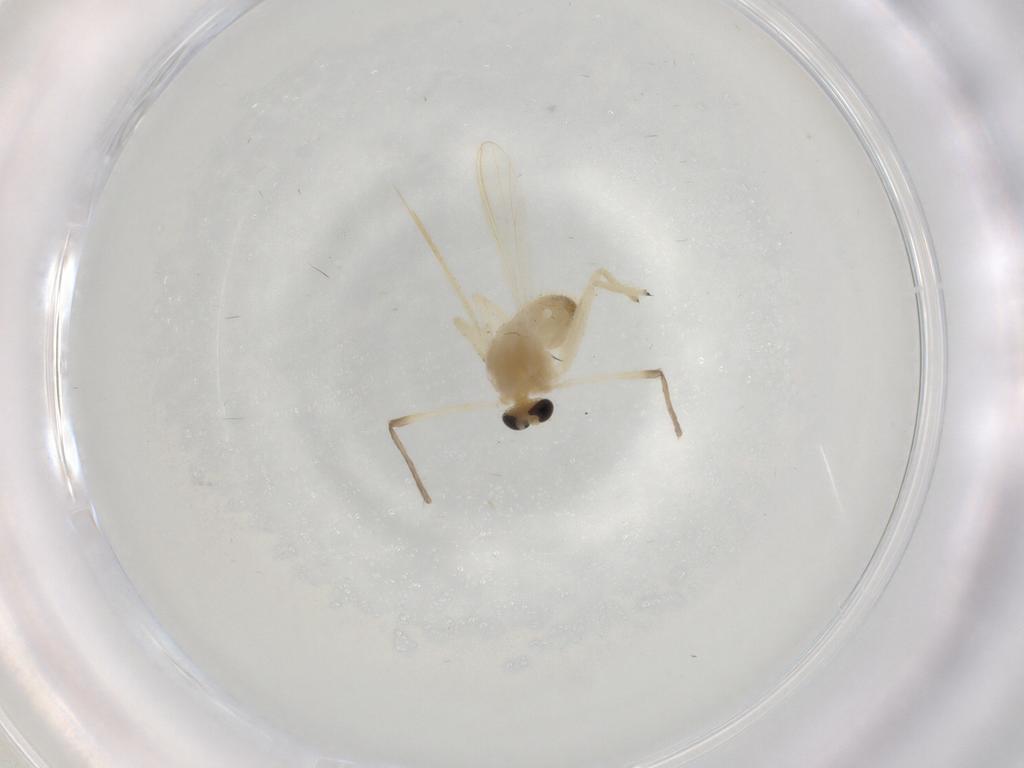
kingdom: Animalia
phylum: Arthropoda
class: Insecta
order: Diptera
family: Chironomidae
